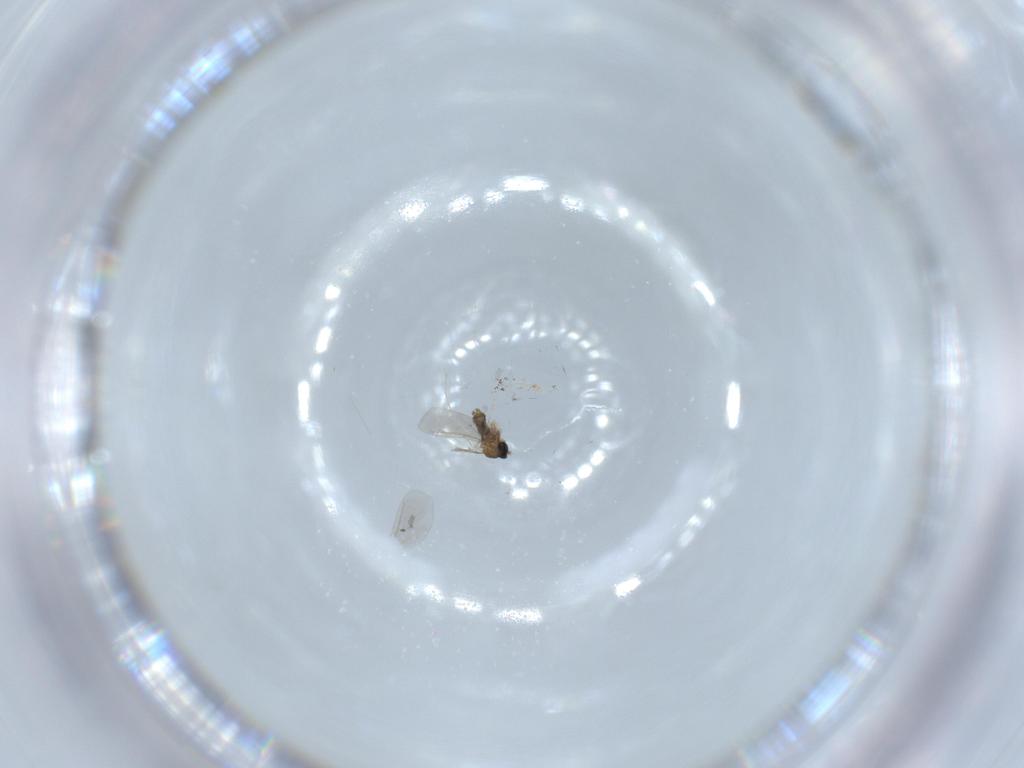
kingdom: Animalia
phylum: Arthropoda
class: Insecta
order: Diptera
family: Cecidomyiidae
